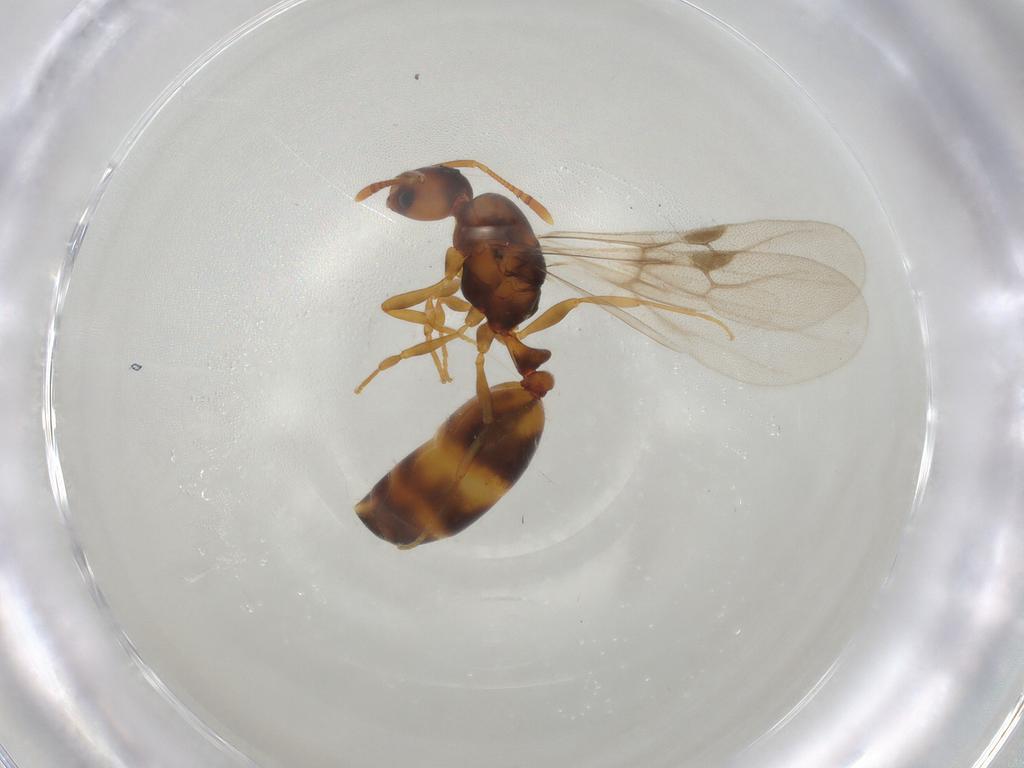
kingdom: Animalia
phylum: Arthropoda
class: Insecta
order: Hymenoptera
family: Formicidae
